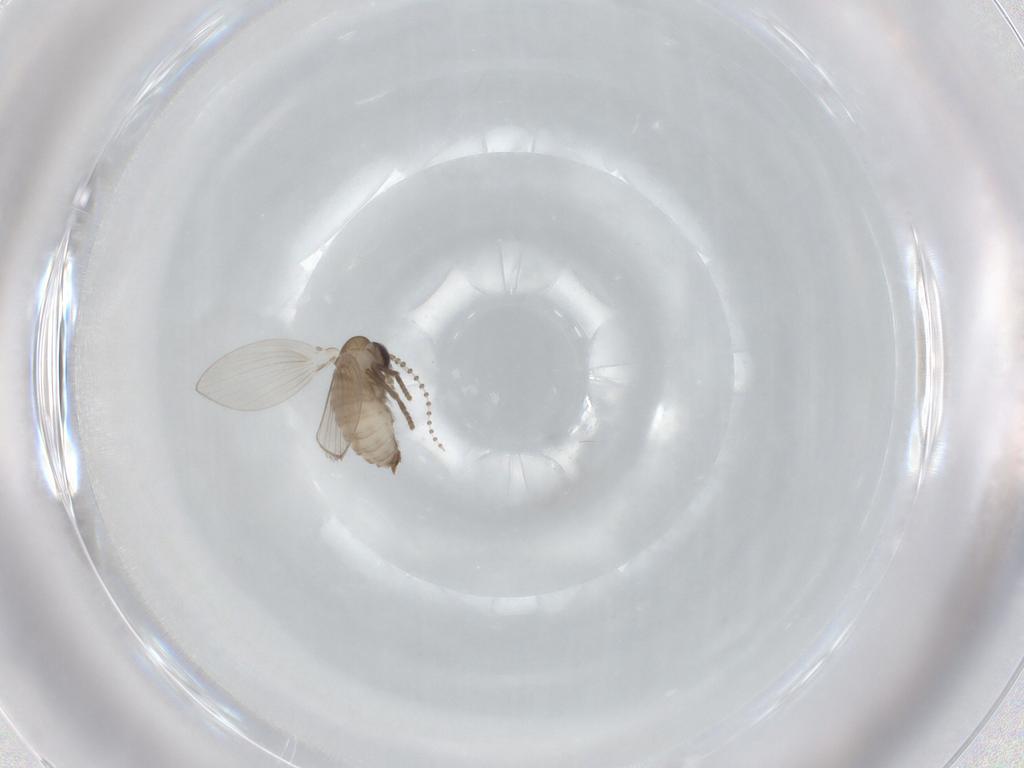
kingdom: Animalia
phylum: Arthropoda
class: Insecta
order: Diptera
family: Psychodidae
